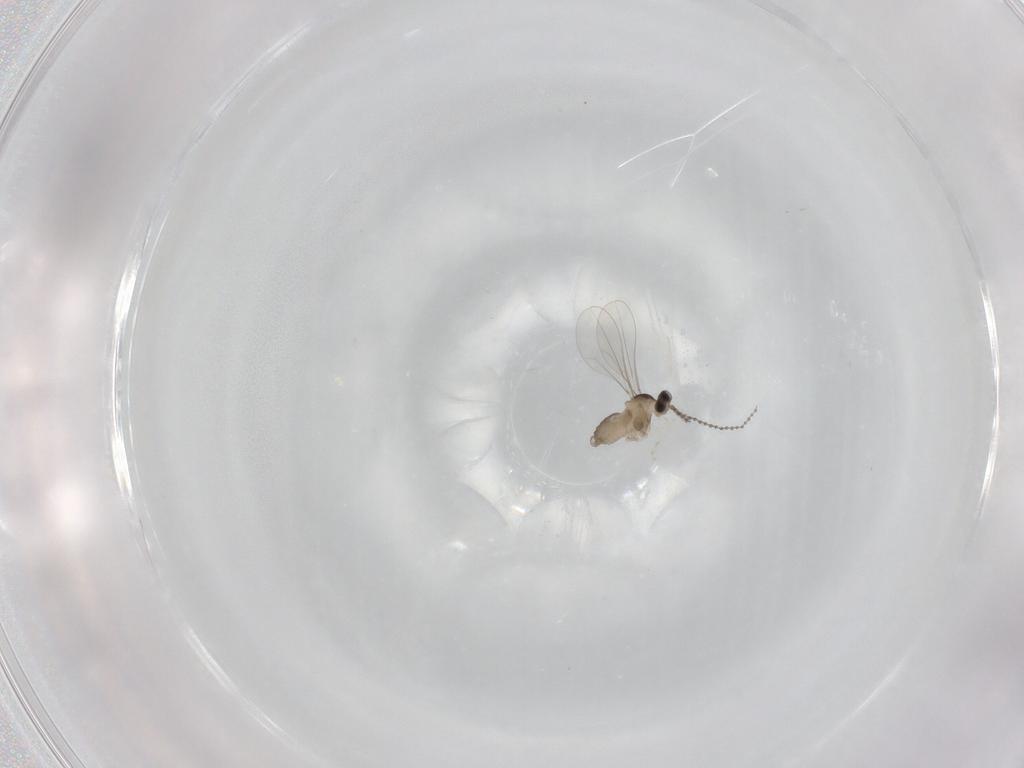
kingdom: Animalia
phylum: Arthropoda
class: Insecta
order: Diptera
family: Cecidomyiidae
